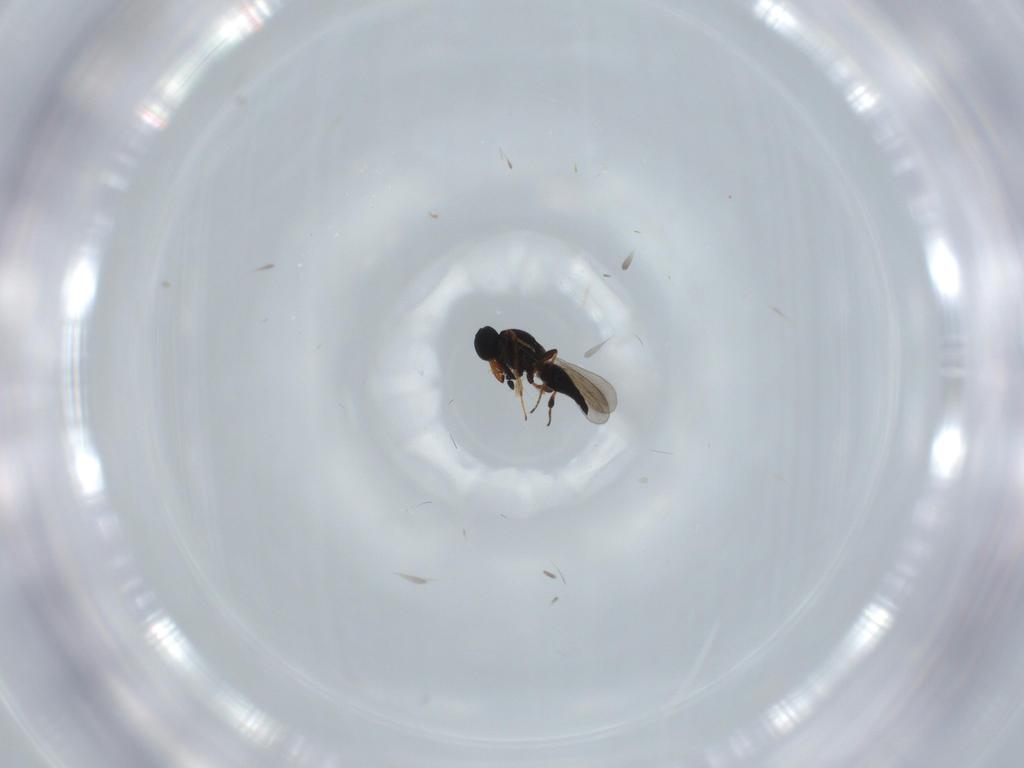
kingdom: Animalia
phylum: Arthropoda
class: Insecta
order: Hymenoptera
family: Platygastridae
